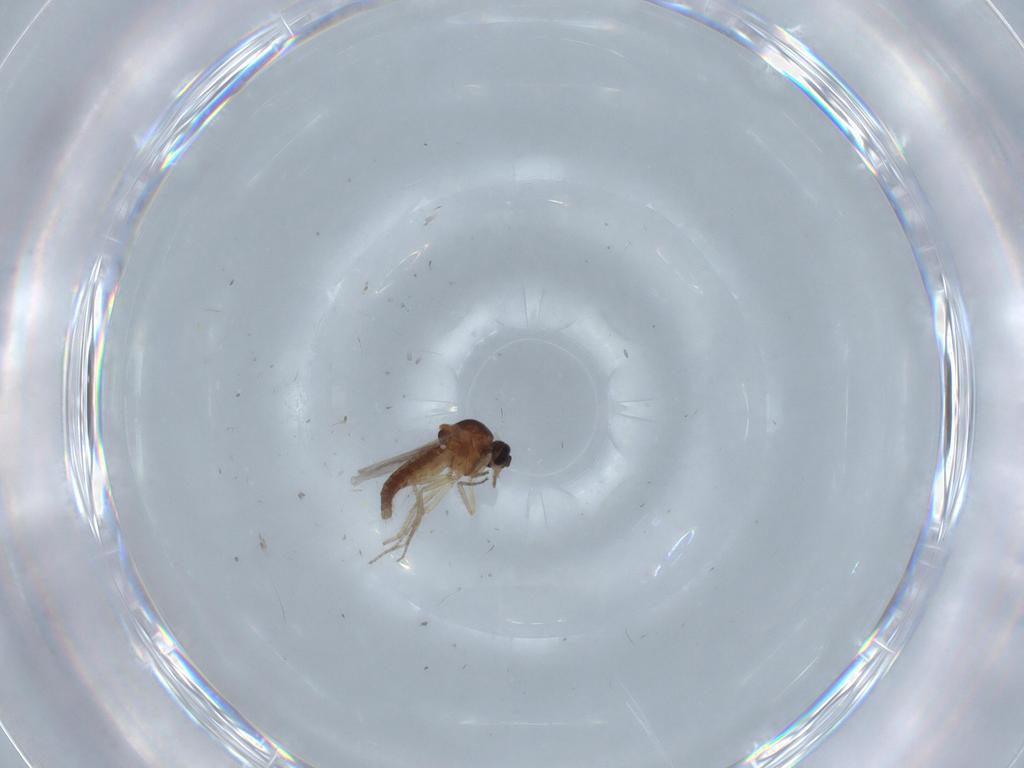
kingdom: Animalia
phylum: Arthropoda
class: Insecta
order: Diptera
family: Ceratopogonidae
